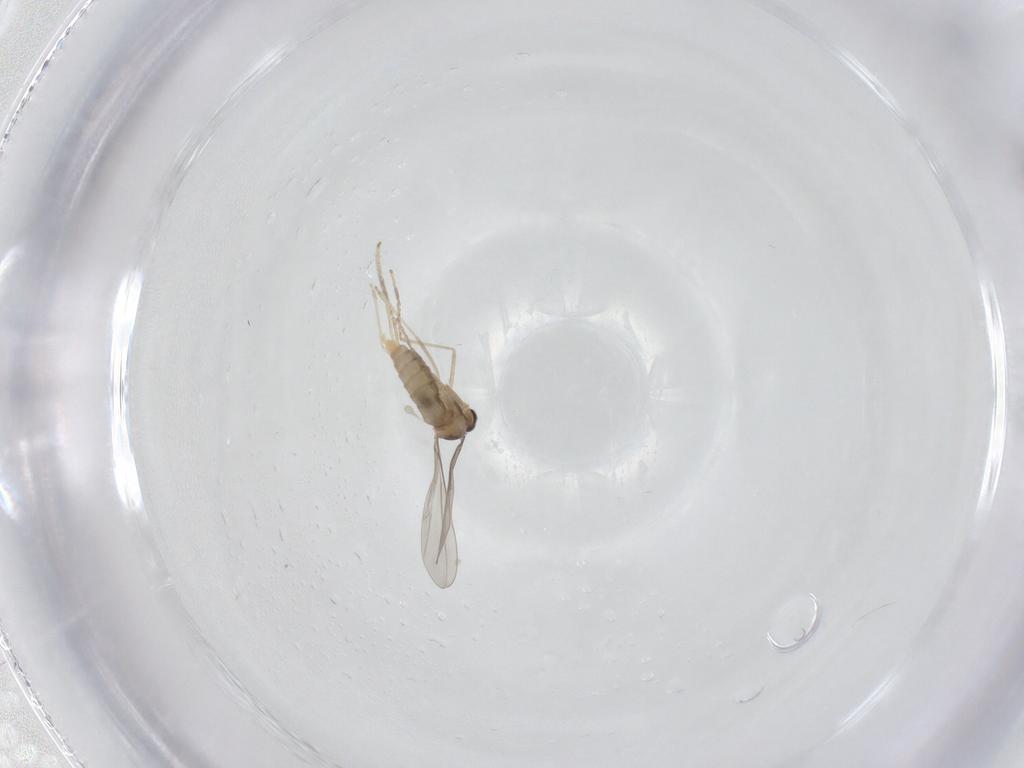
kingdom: Animalia
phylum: Arthropoda
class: Insecta
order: Diptera
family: Cecidomyiidae
